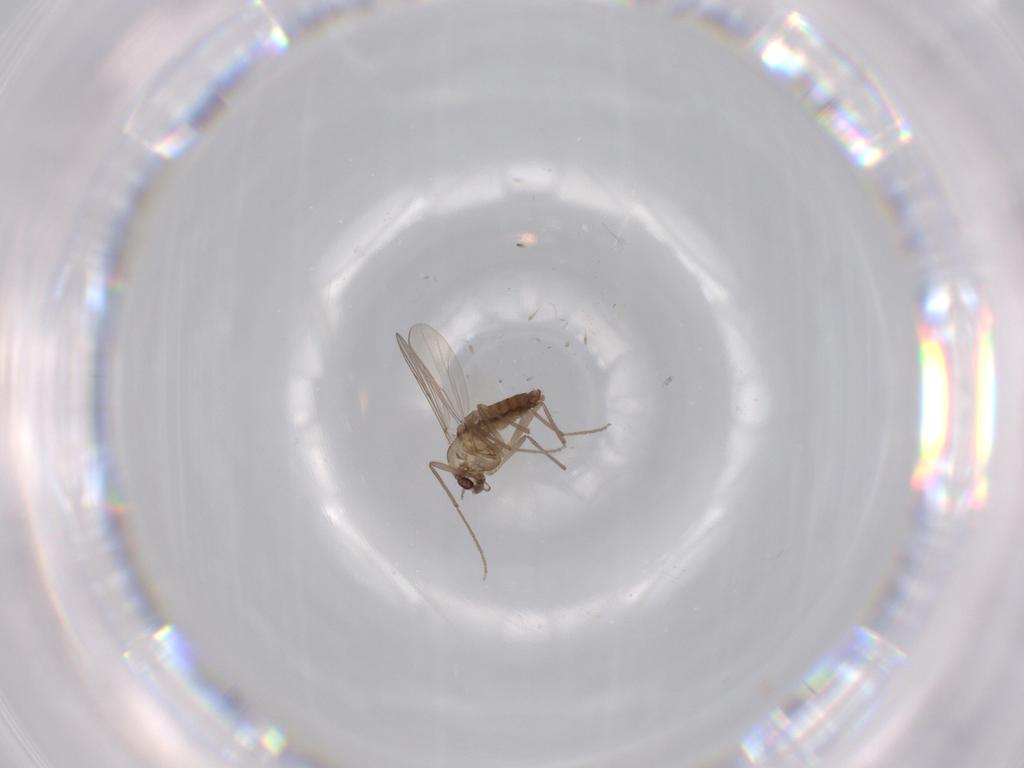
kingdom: Animalia
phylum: Arthropoda
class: Insecta
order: Diptera
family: Chironomidae
